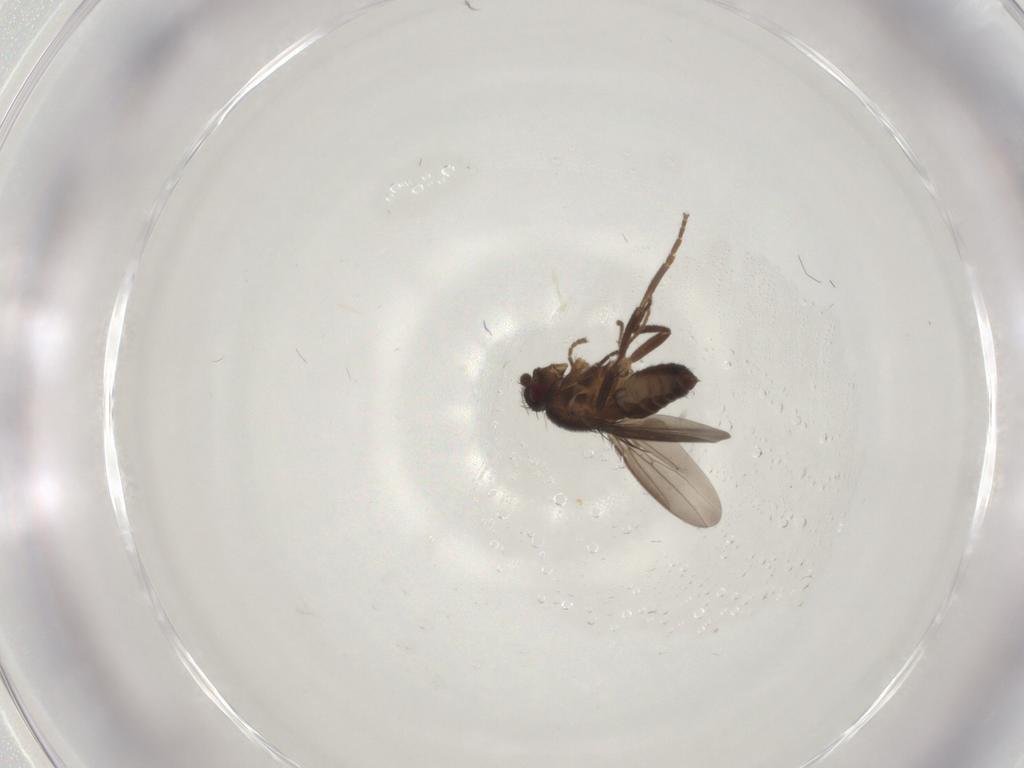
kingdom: Animalia
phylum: Arthropoda
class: Insecta
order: Diptera
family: Sphaeroceridae
